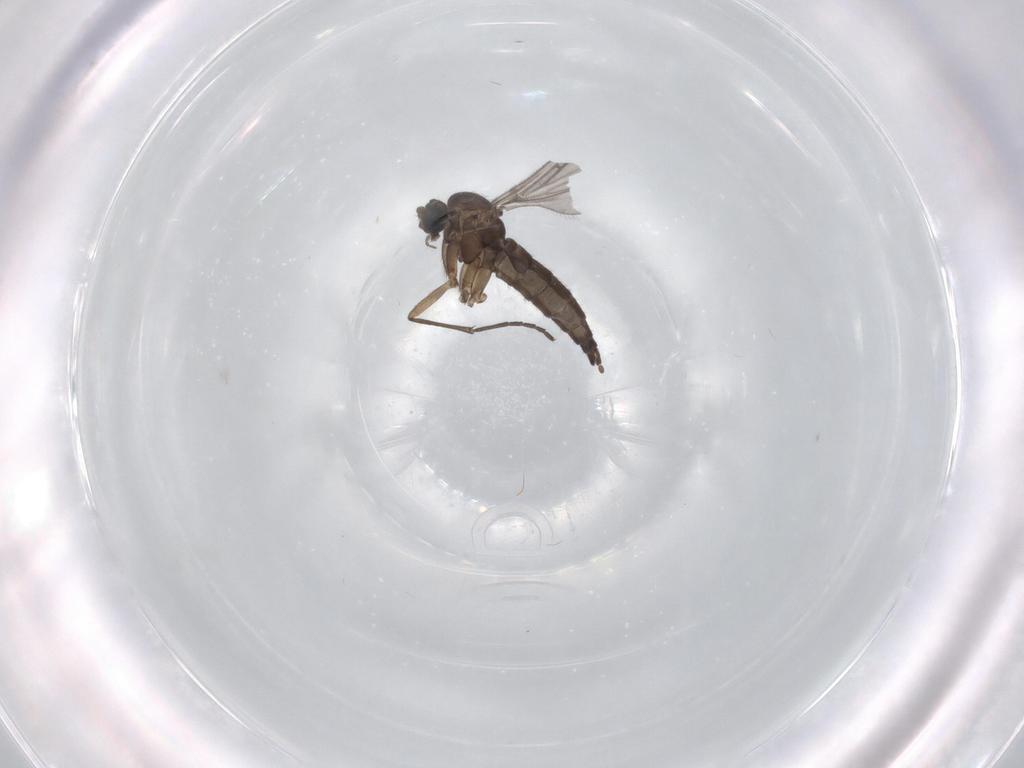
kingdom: Animalia
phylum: Arthropoda
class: Insecta
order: Diptera
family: Sciaridae
